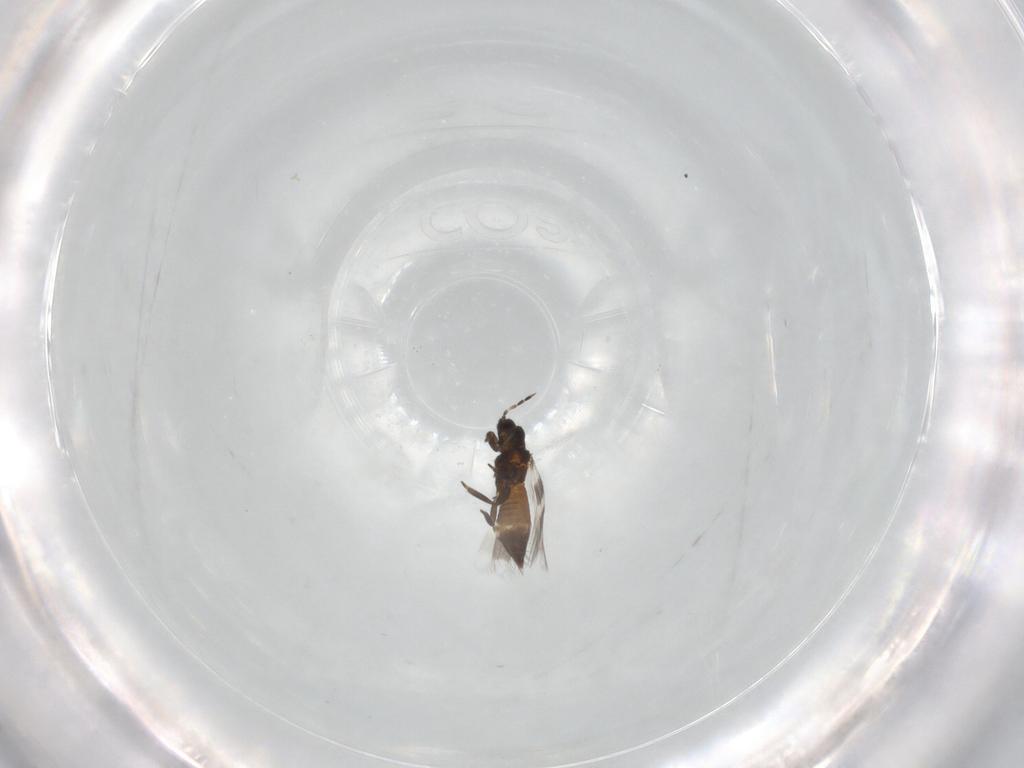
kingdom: Animalia
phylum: Arthropoda
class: Insecta
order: Thysanoptera
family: Aeolothripidae
